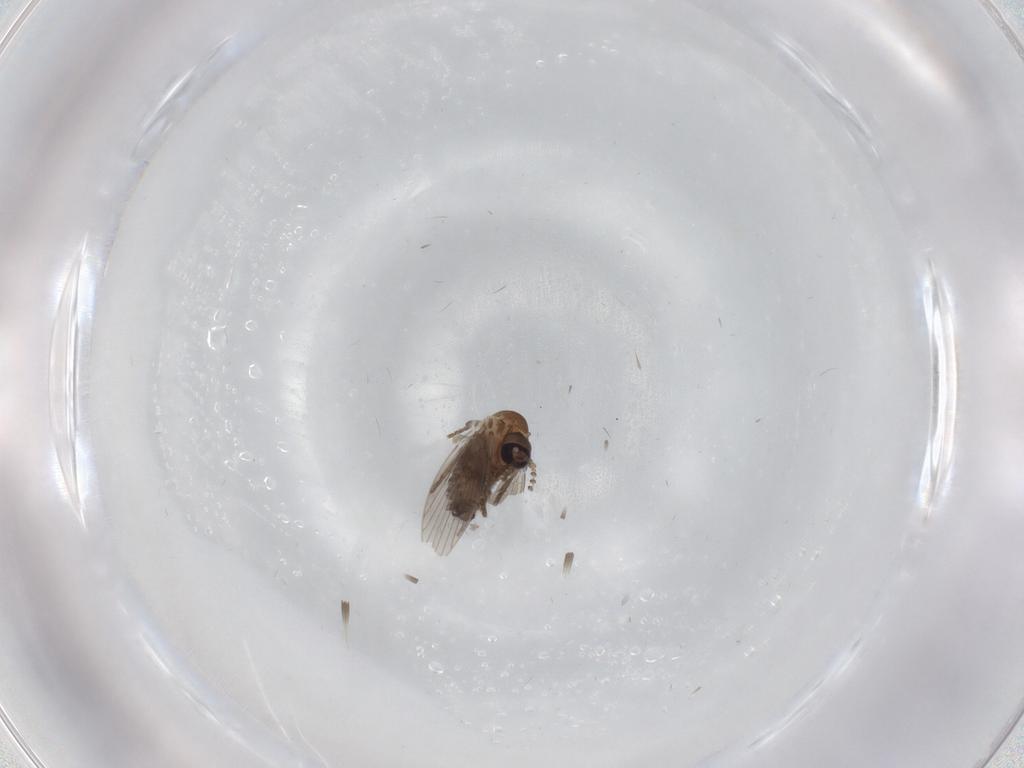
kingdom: Animalia
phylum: Arthropoda
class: Insecta
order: Diptera
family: Psychodidae
